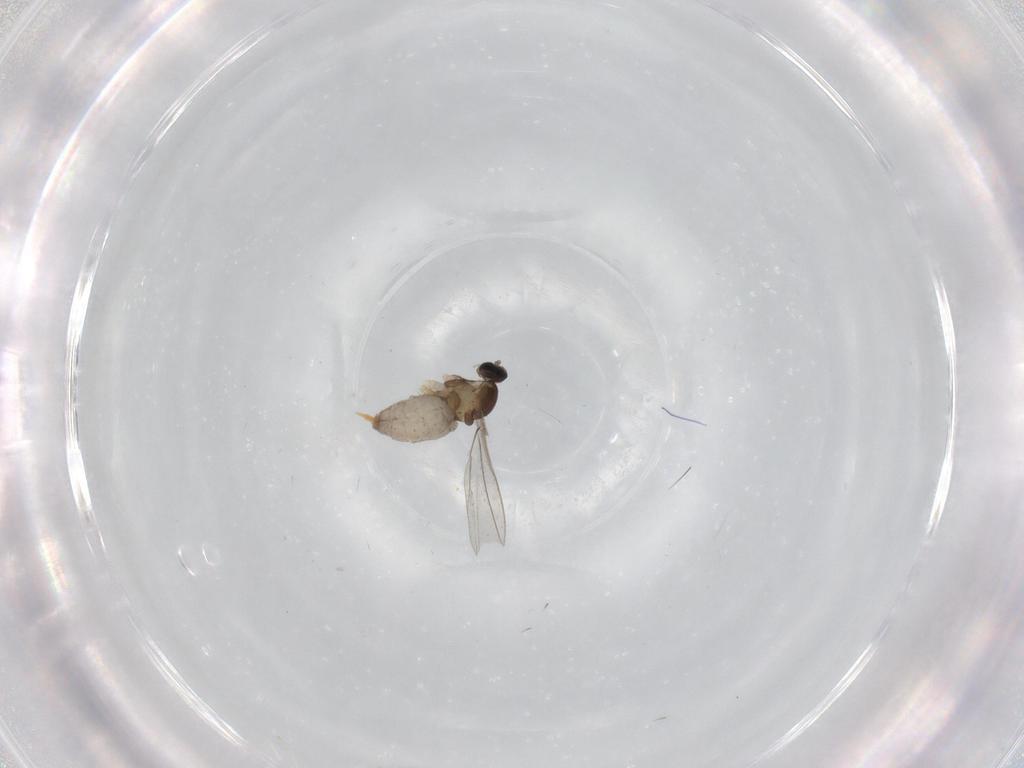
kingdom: Animalia
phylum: Arthropoda
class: Insecta
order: Diptera
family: Cecidomyiidae
